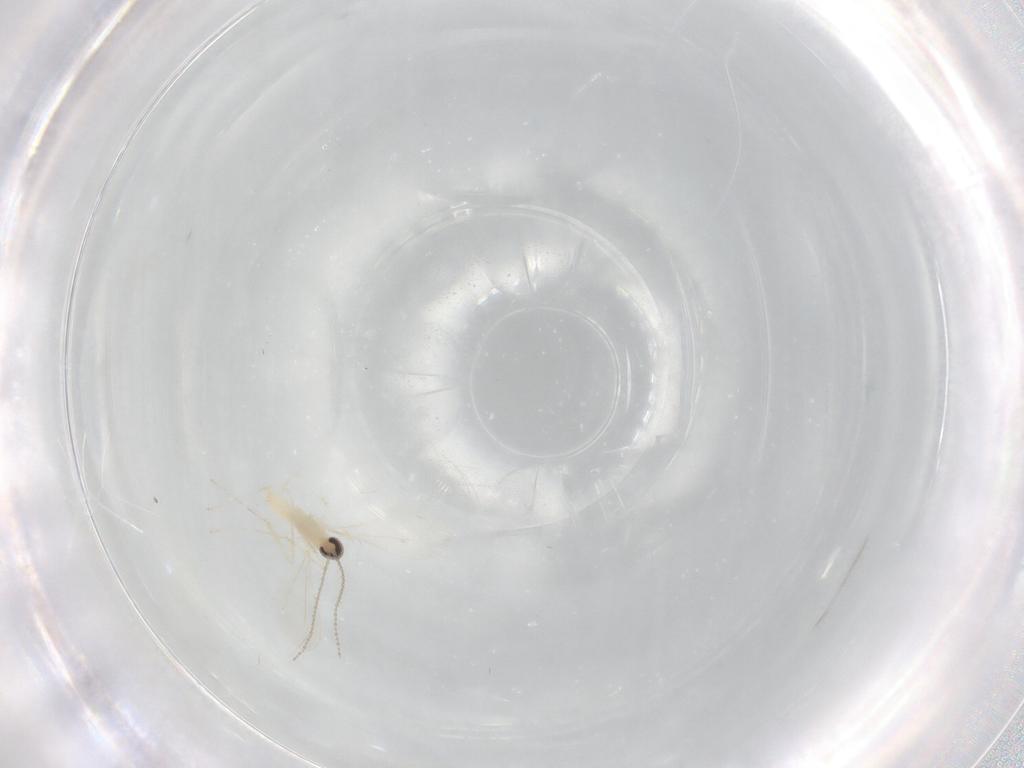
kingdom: Animalia
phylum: Arthropoda
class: Insecta
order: Diptera
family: Cecidomyiidae
